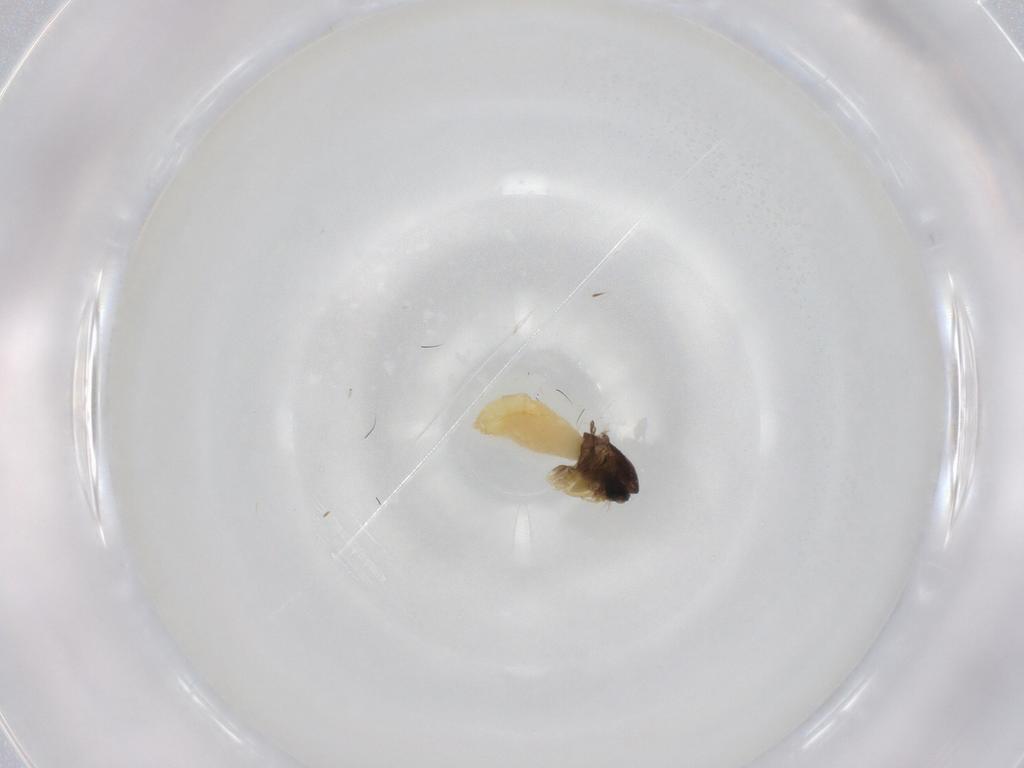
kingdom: Animalia
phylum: Arthropoda
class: Insecta
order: Diptera
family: Chironomidae
